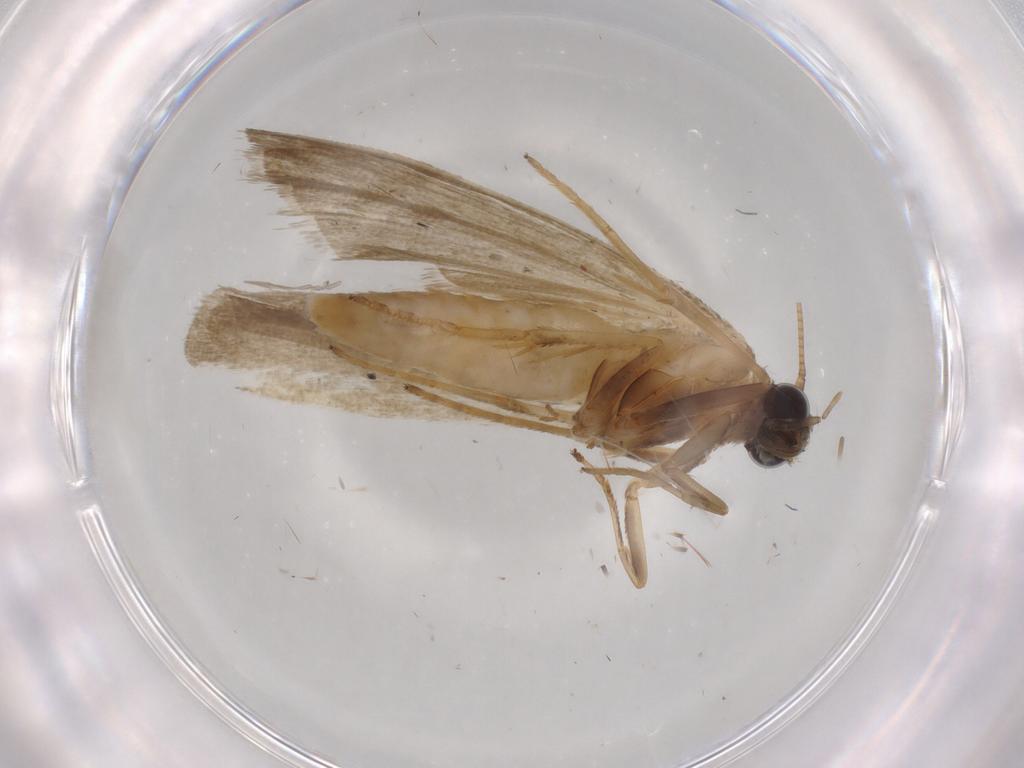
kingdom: Animalia
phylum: Arthropoda
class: Insecta
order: Lepidoptera
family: Noctuidae
